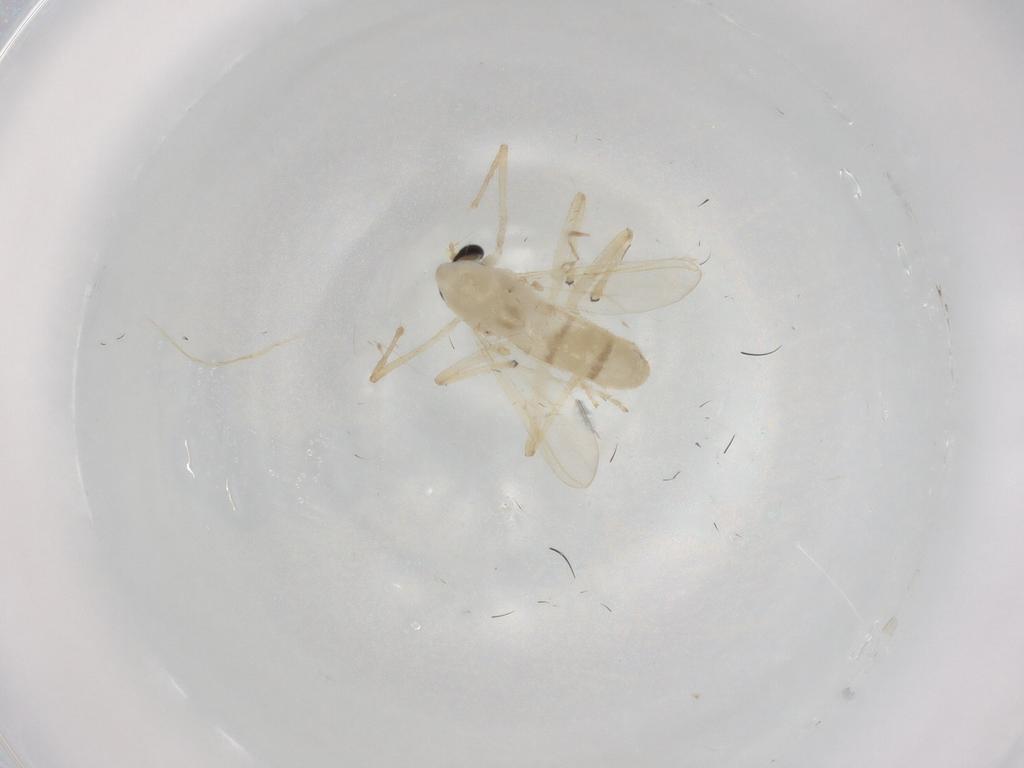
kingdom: Animalia
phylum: Arthropoda
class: Insecta
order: Diptera
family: Chironomidae
